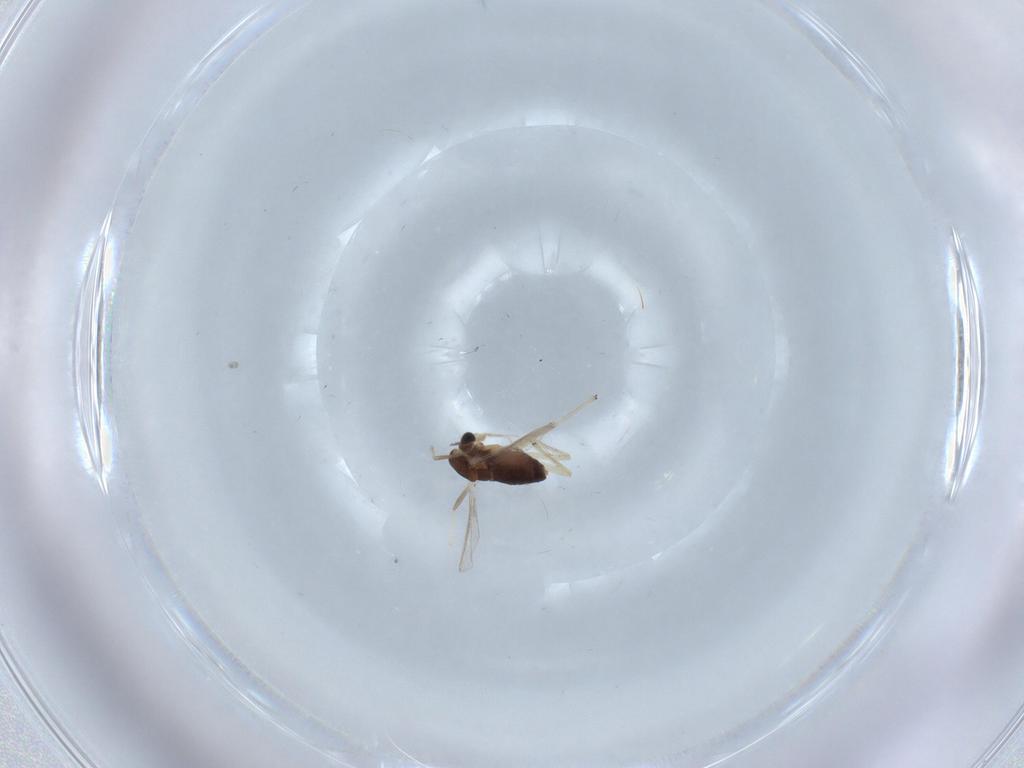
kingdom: Animalia
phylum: Arthropoda
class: Insecta
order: Diptera
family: Chironomidae
